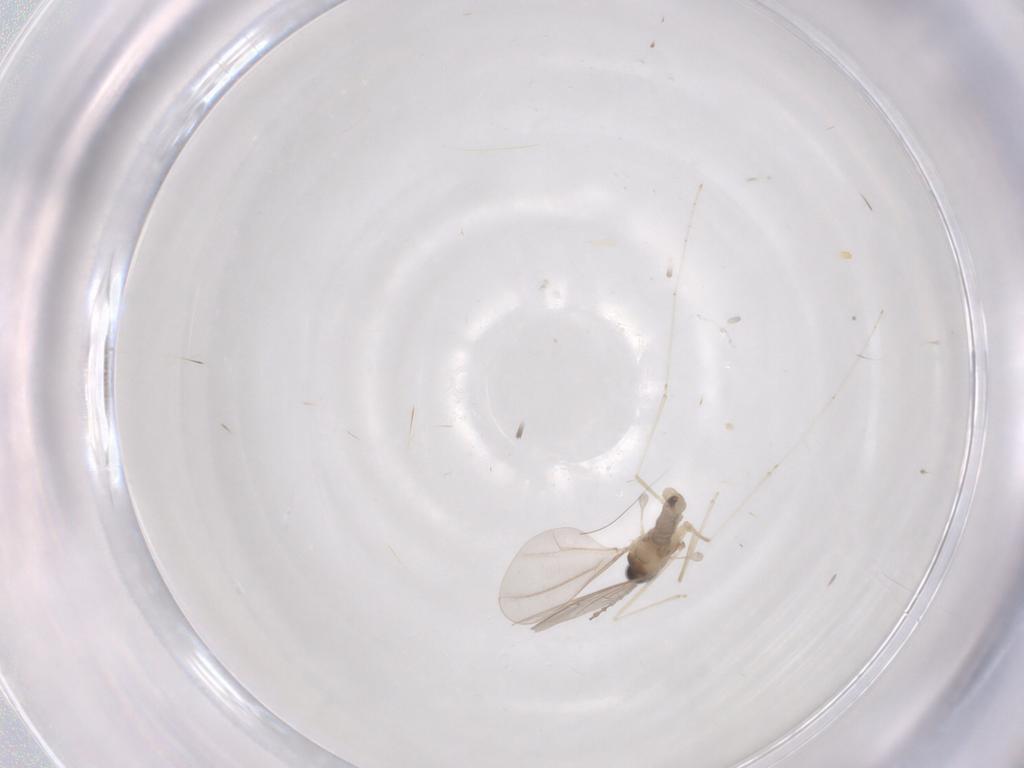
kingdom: Animalia
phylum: Arthropoda
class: Insecta
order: Diptera
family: Cecidomyiidae
